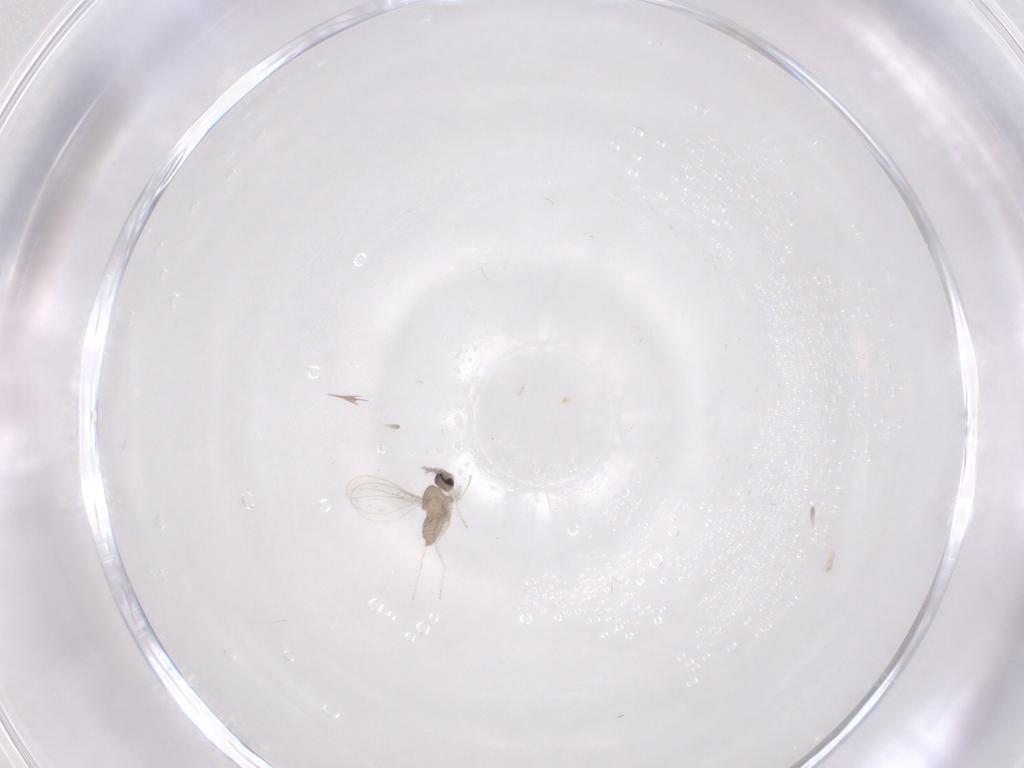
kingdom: Animalia
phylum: Arthropoda
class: Insecta
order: Diptera
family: Cecidomyiidae
